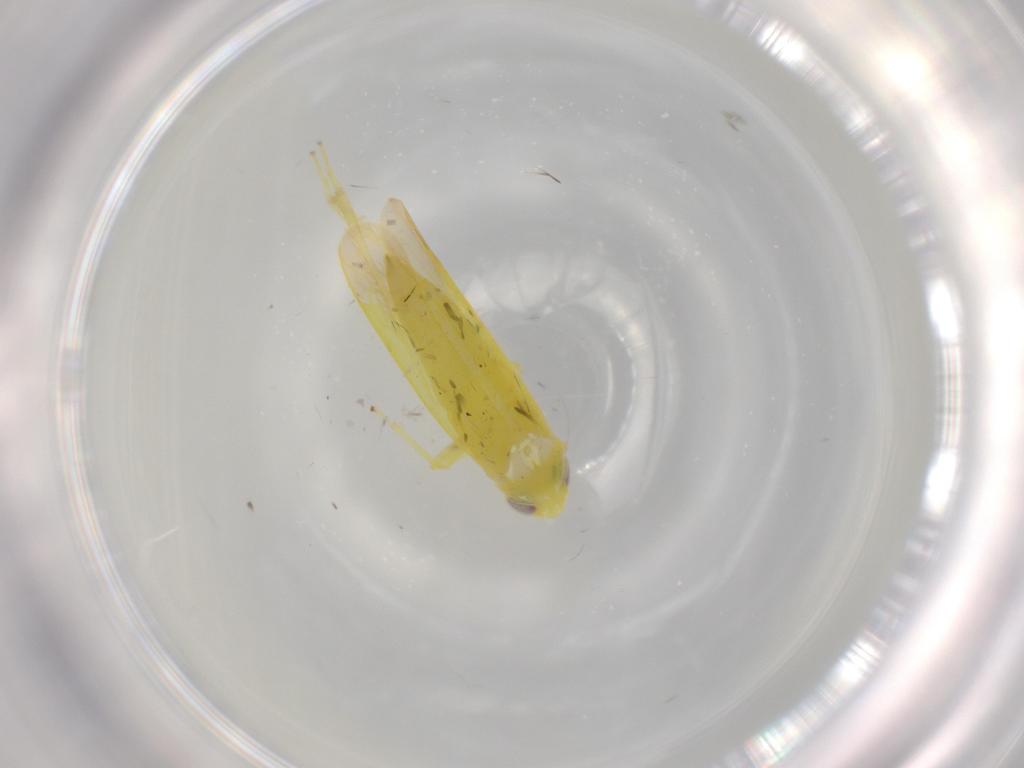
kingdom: Animalia
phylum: Arthropoda
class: Insecta
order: Hemiptera
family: Cicadellidae
